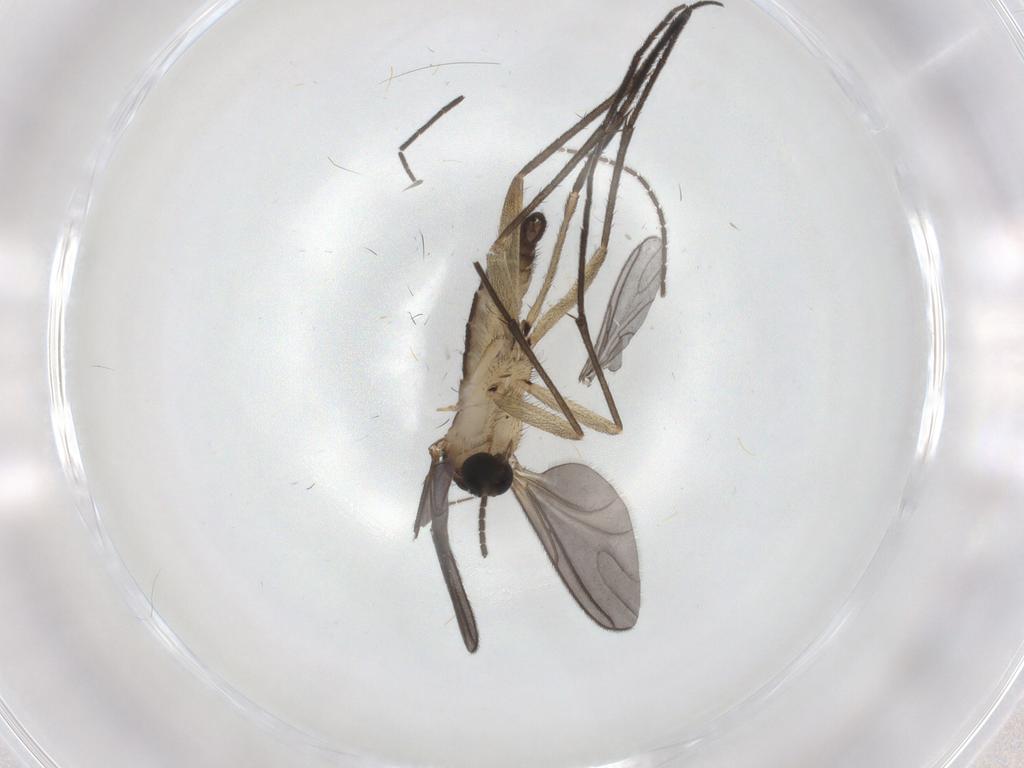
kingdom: Animalia
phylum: Arthropoda
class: Insecta
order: Diptera
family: Sciaridae
